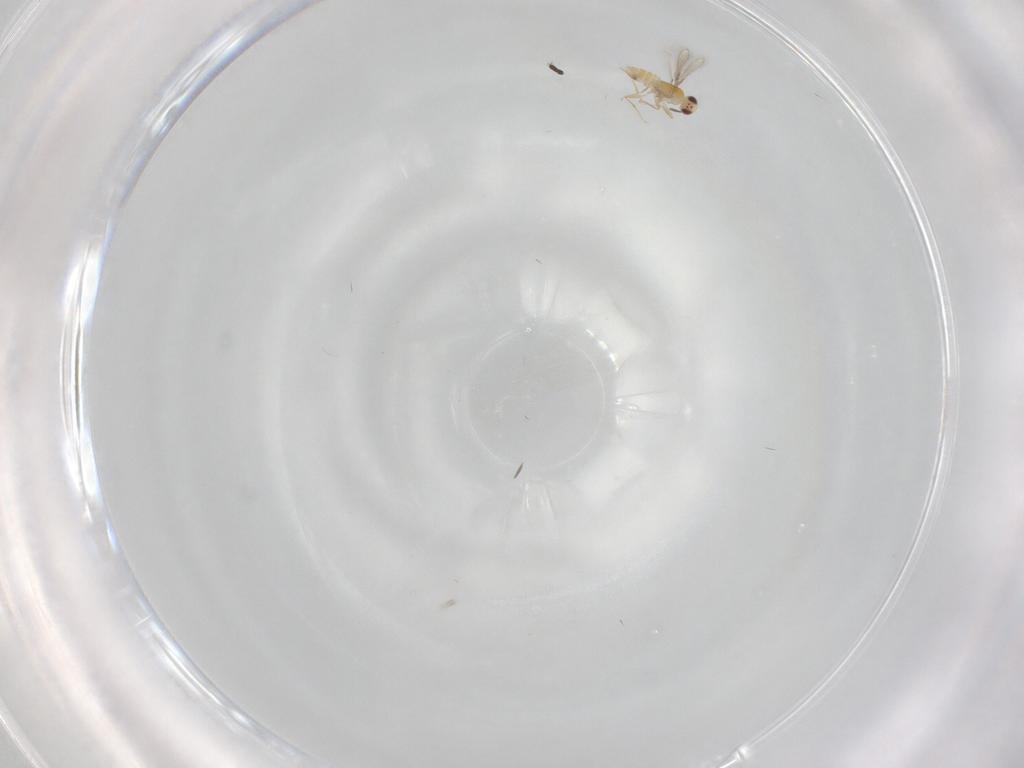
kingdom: Animalia
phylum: Arthropoda
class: Insecta
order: Hymenoptera
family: Mymaridae
